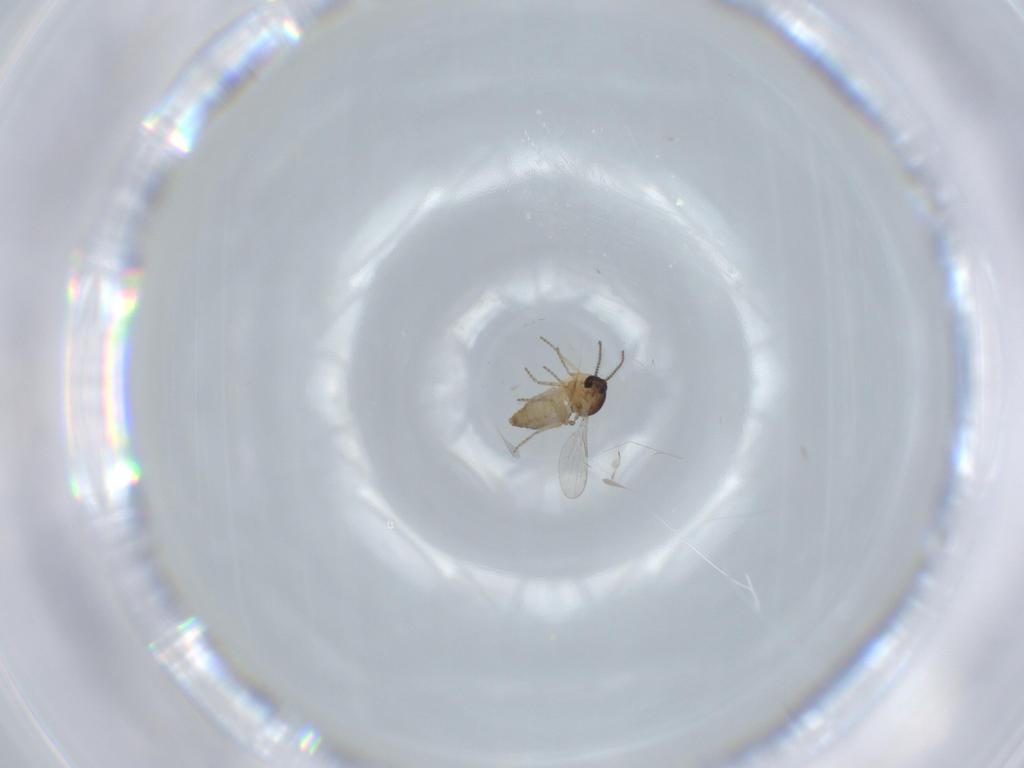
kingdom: Animalia
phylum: Arthropoda
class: Insecta
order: Diptera
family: Ceratopogonidae
